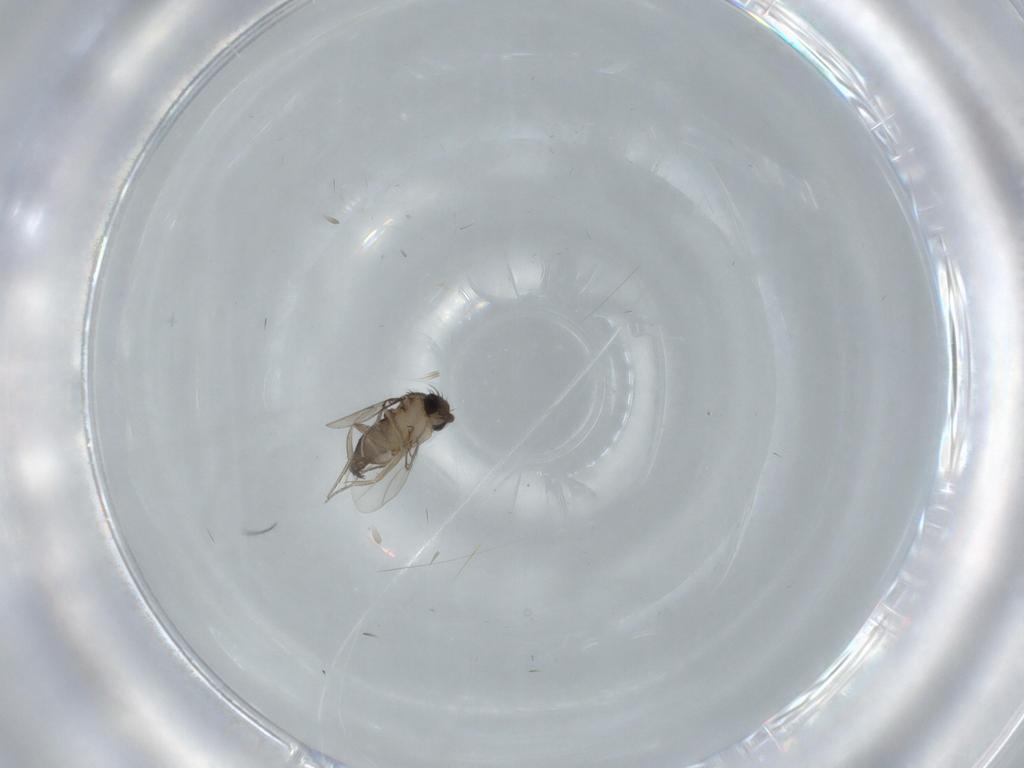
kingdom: Animalia
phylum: Arthropoda
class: Insecta
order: Diptera
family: Phoridae
